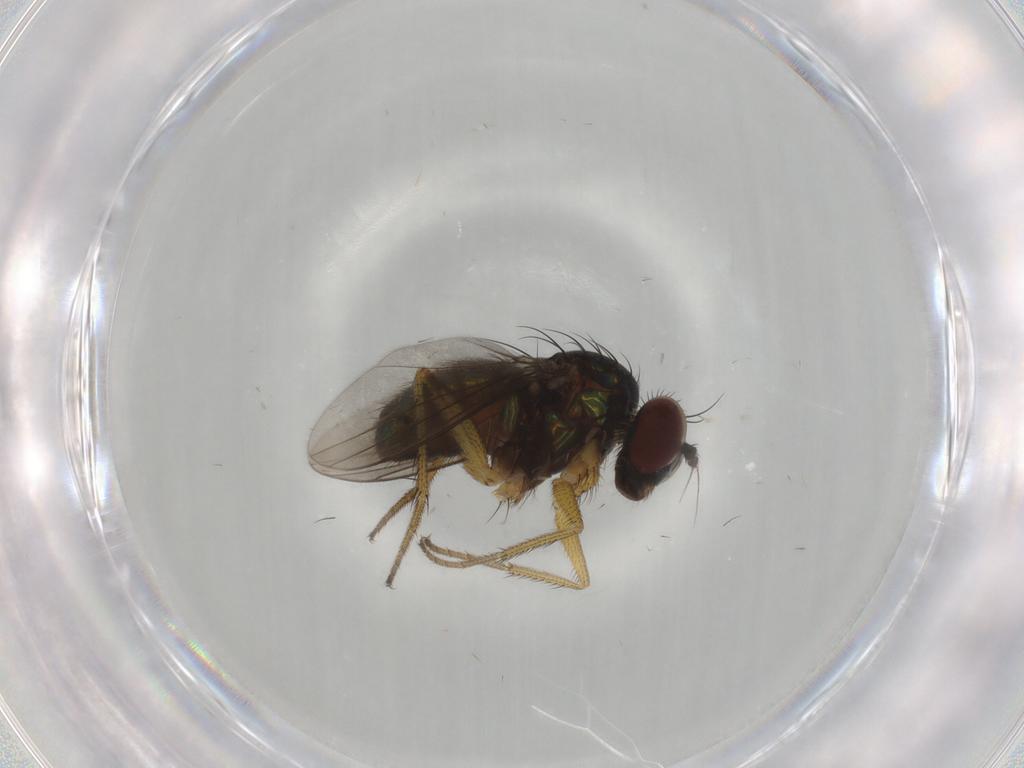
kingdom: Animalia
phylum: Arthropoda
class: Insecta
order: Diptera
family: Dolichopodidae
